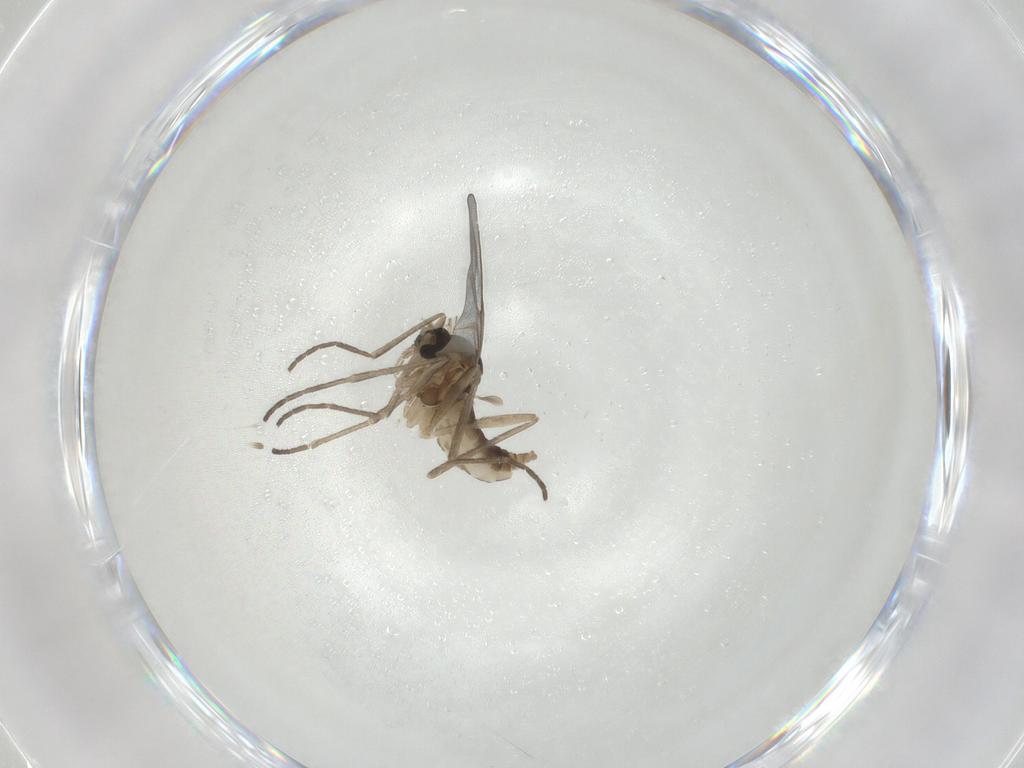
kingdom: Animalia
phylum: Arthropoda
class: Insecta
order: Diptera
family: Cecidomyiidae
